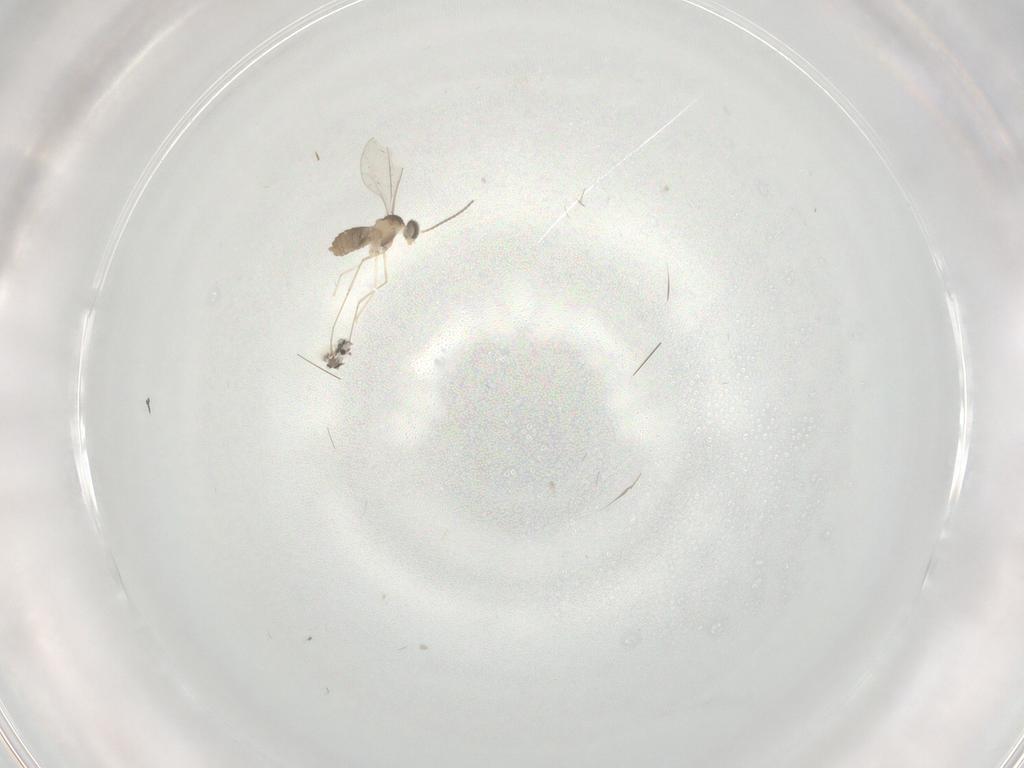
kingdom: Animalia
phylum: Arthropoda
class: Insecta
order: Diptera
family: Cecidomyiidae
